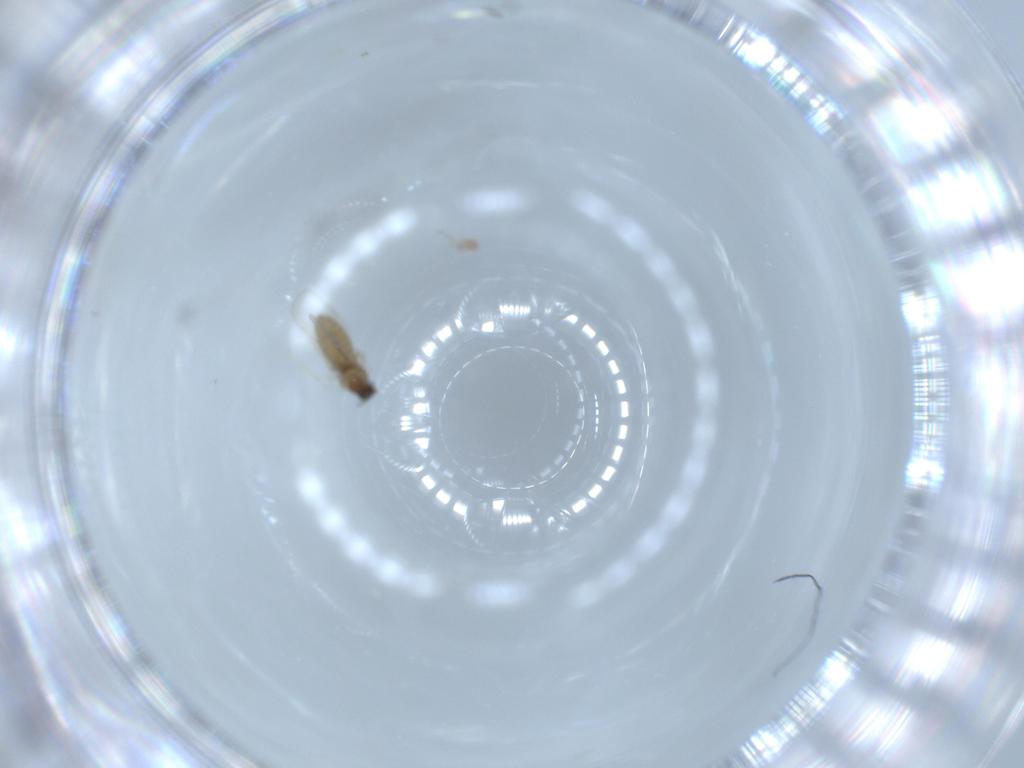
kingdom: Animalia
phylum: Arthropoda
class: Insecta
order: Diptera
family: Cecidomyiidae
